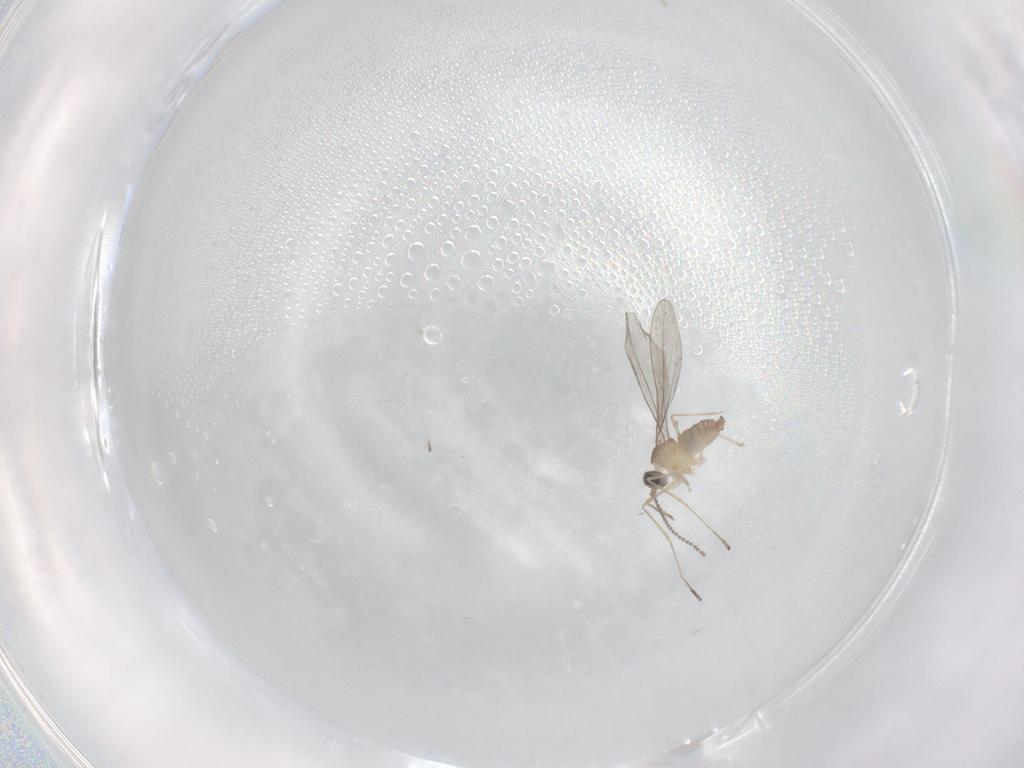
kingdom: Animalia
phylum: Arthropoda
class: Insecta
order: Diptera
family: Cecidomyiidae
